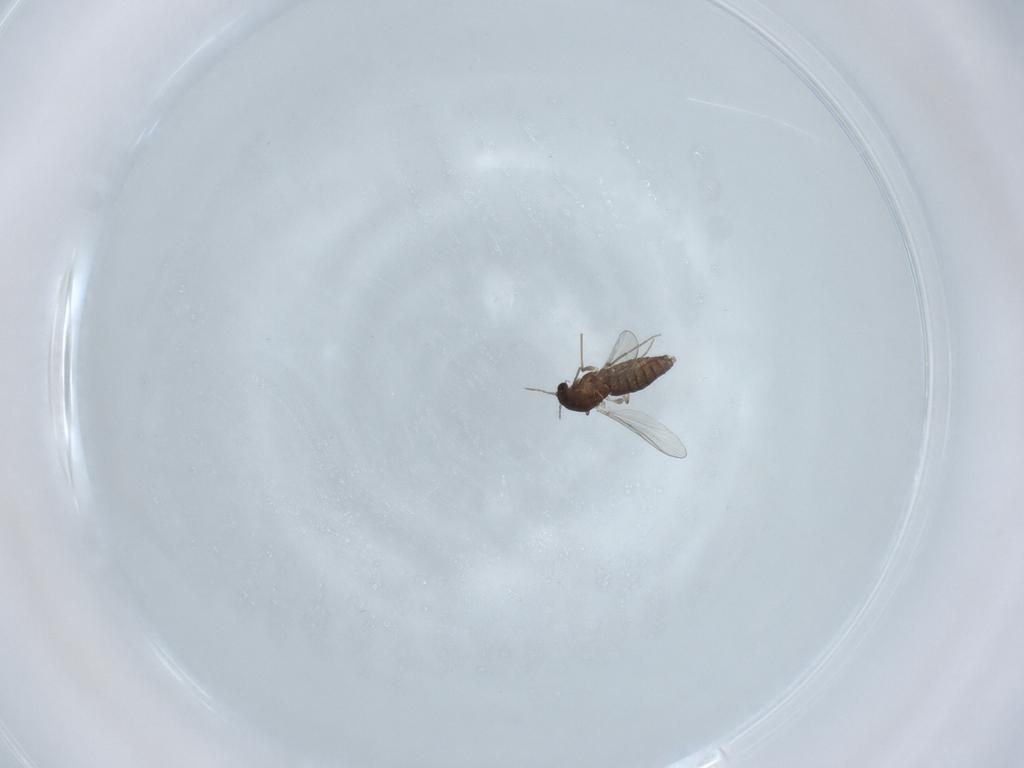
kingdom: Animalia
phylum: Arthropoda
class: Insecta
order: Diptera
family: Chironomidae
